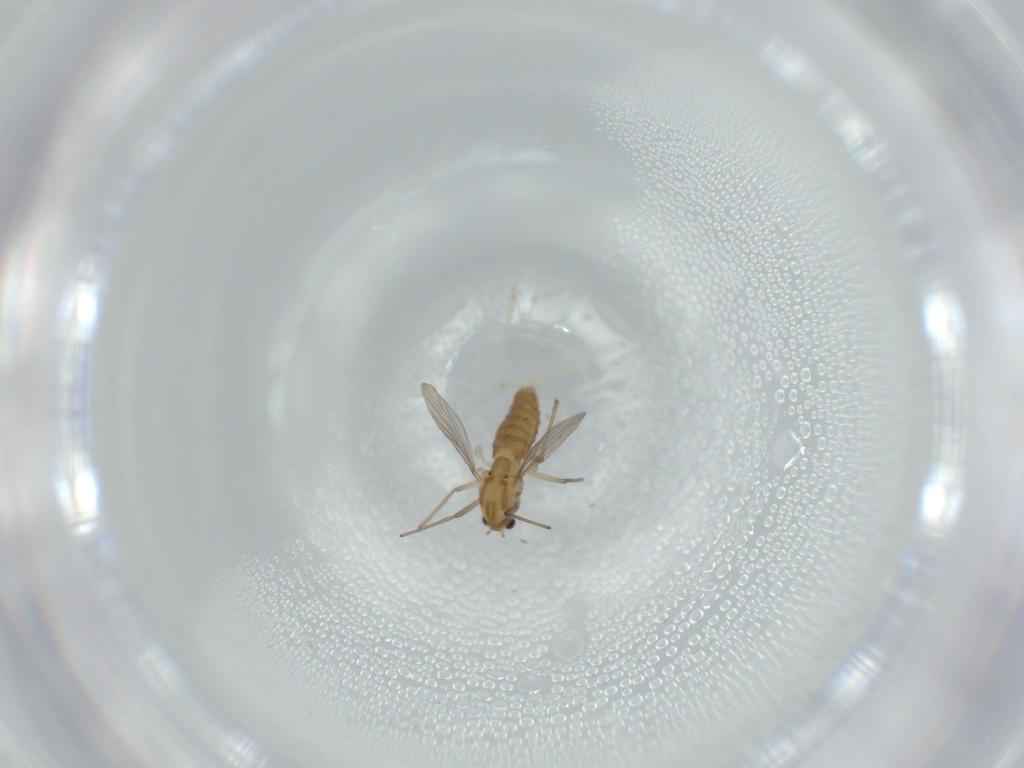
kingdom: Animalia
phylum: Arthropoda
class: Insecta
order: Diptera
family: Chironomidae
